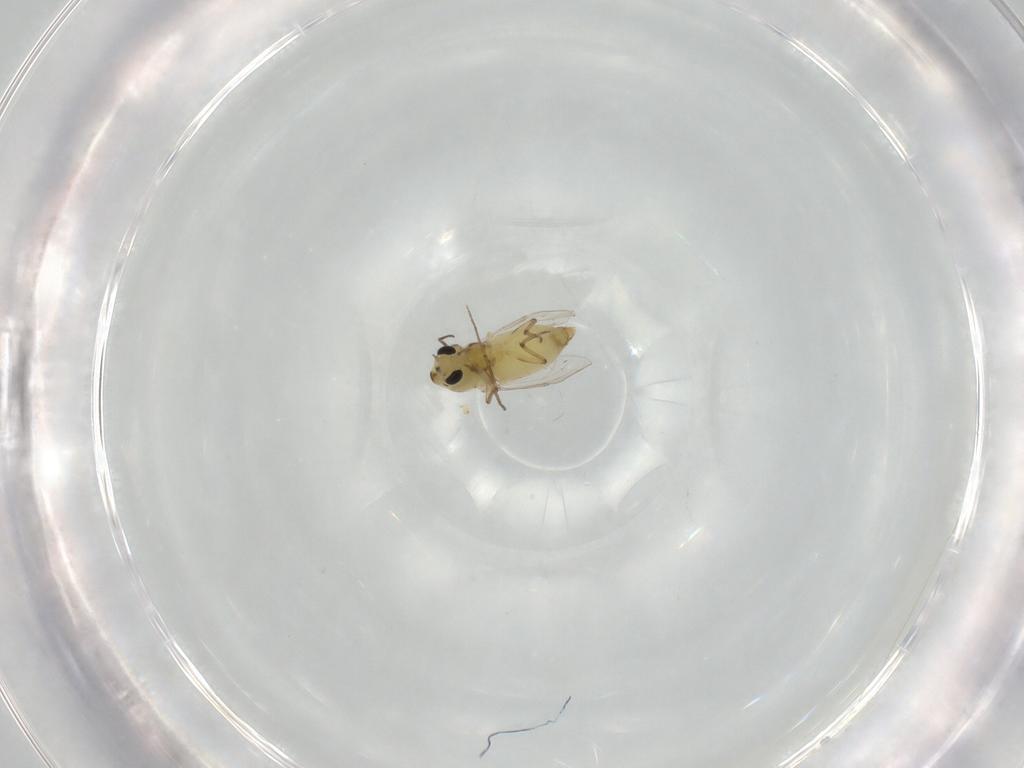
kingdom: Animalia
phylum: Arthropoda
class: Insecta
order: Diptera
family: Chironomidae
